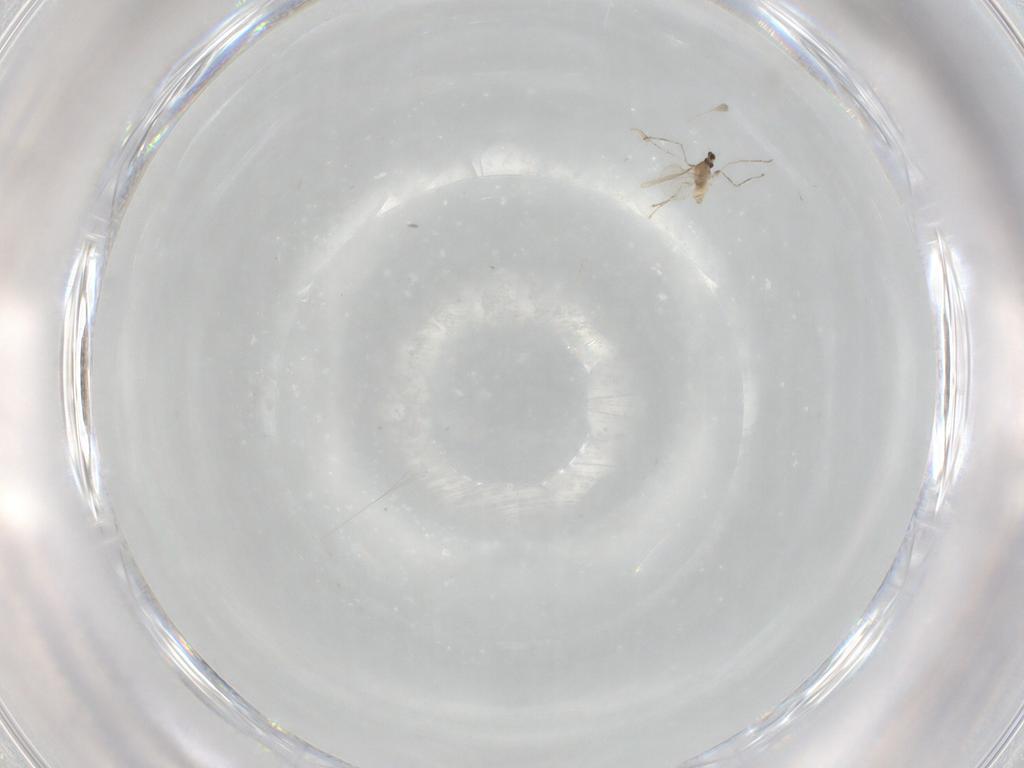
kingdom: Animalia
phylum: Arthropoda
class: Insecta
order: Diptera
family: Cecidomyiidae
